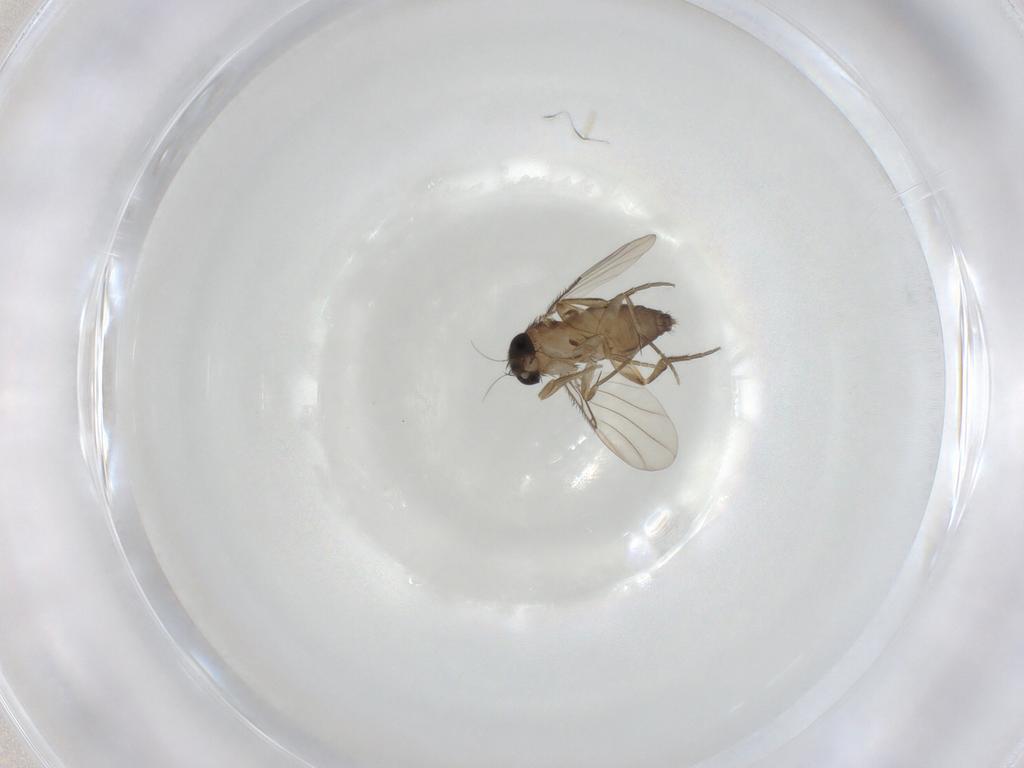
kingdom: Animalia
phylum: Arthropoda
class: Insecta
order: Diptera
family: Phoridae
